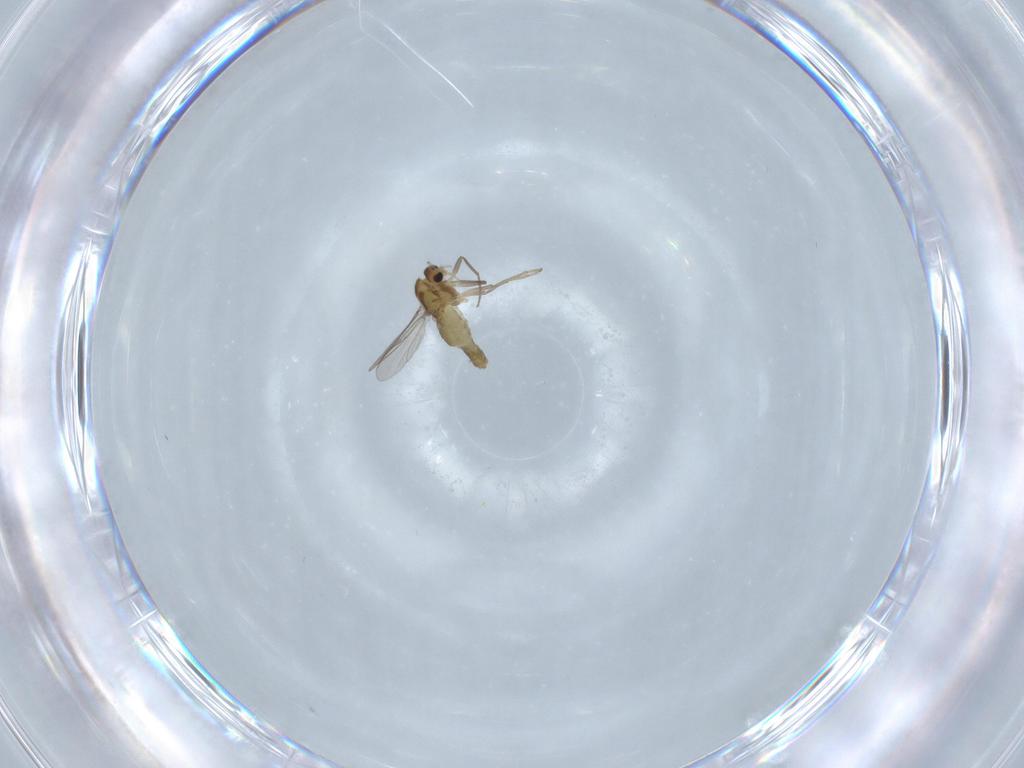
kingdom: Animalia
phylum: Arthropoda
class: Insecta
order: Diptera
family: Chironomidae
